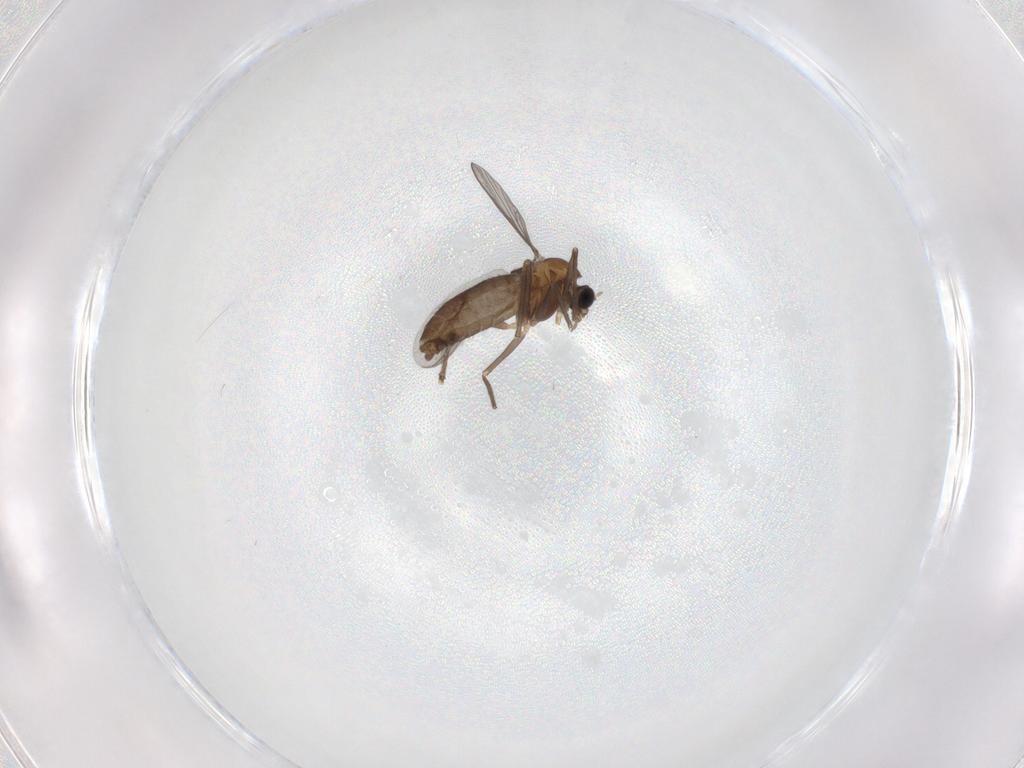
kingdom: Animalia
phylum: Arthropoda
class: Insecta
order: Diptera
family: Chironomidae
